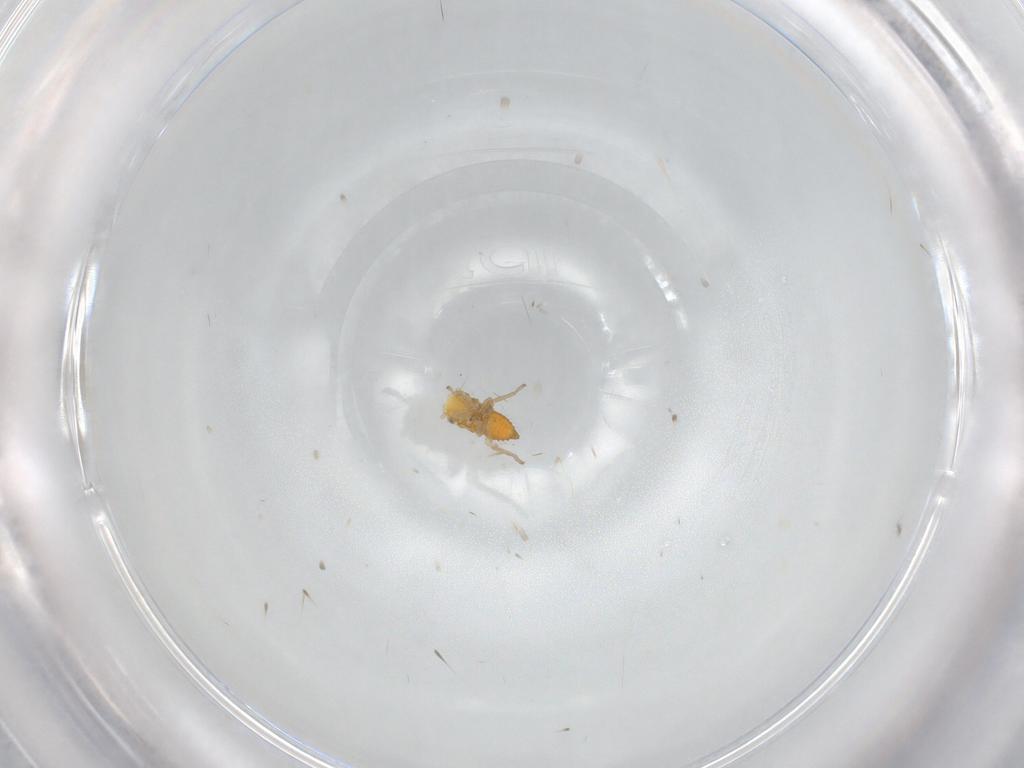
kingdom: Animalia
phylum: Arthropoda
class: Insecta
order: Hemiptera
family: Cicadellidae
